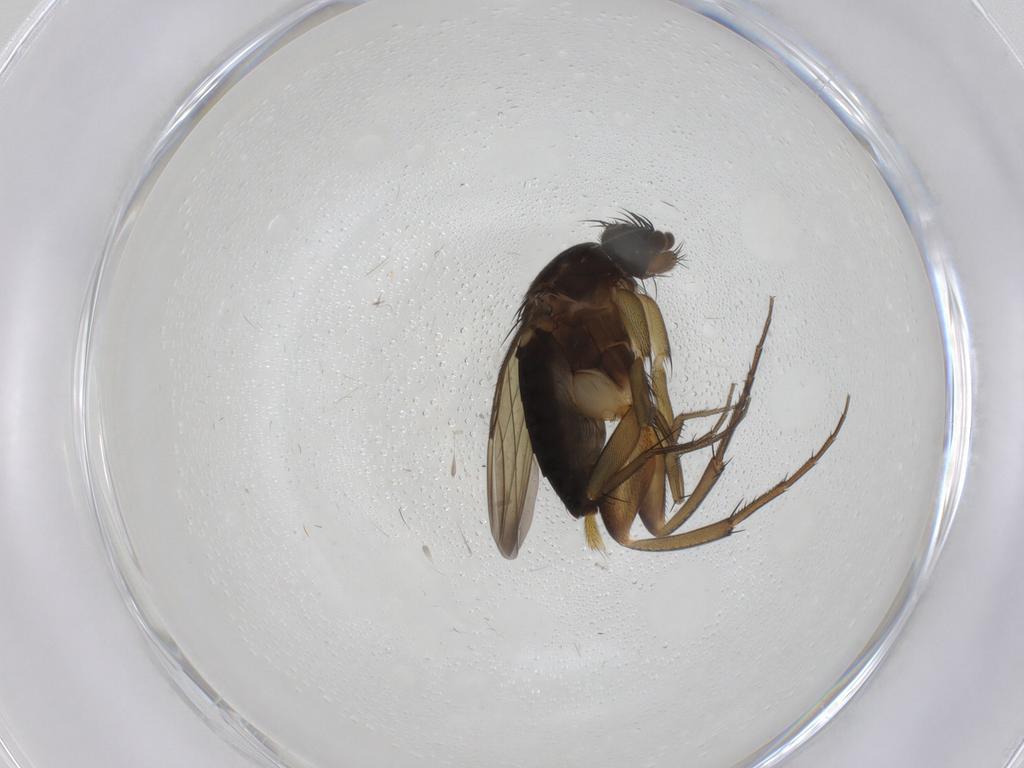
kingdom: Animalia
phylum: Arthropoda
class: Insecta
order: Diptera
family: Phoridae
